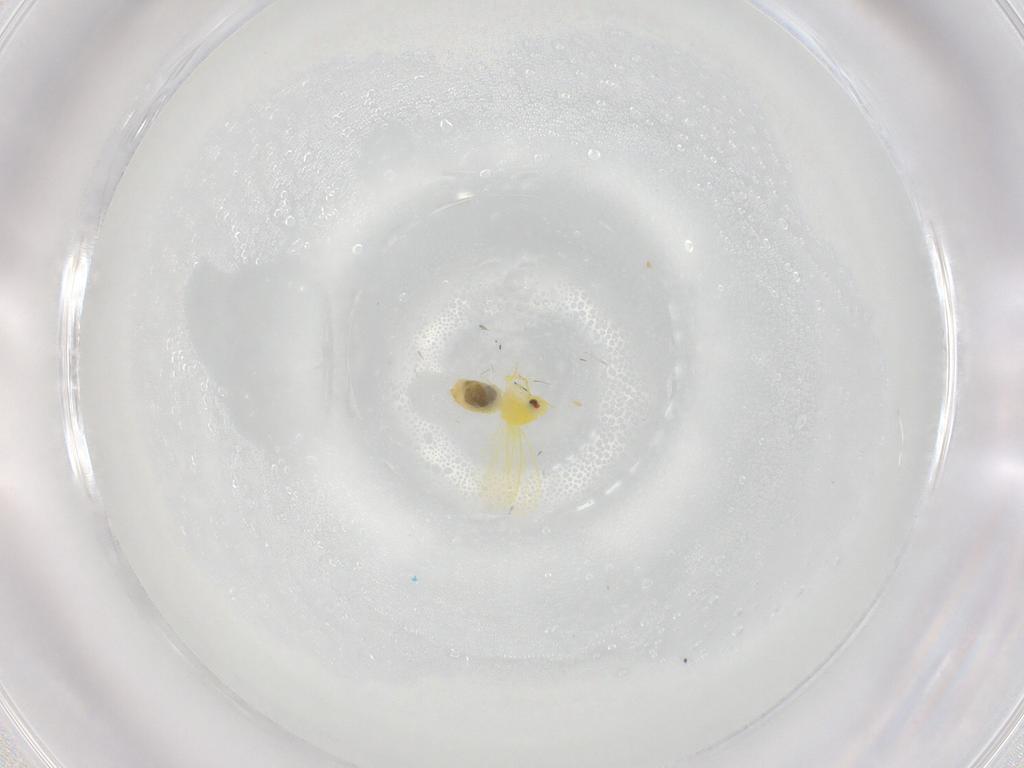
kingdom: Animalia
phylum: Arthropoda
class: Insecta
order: Hemiptera
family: Aleyrodidae
